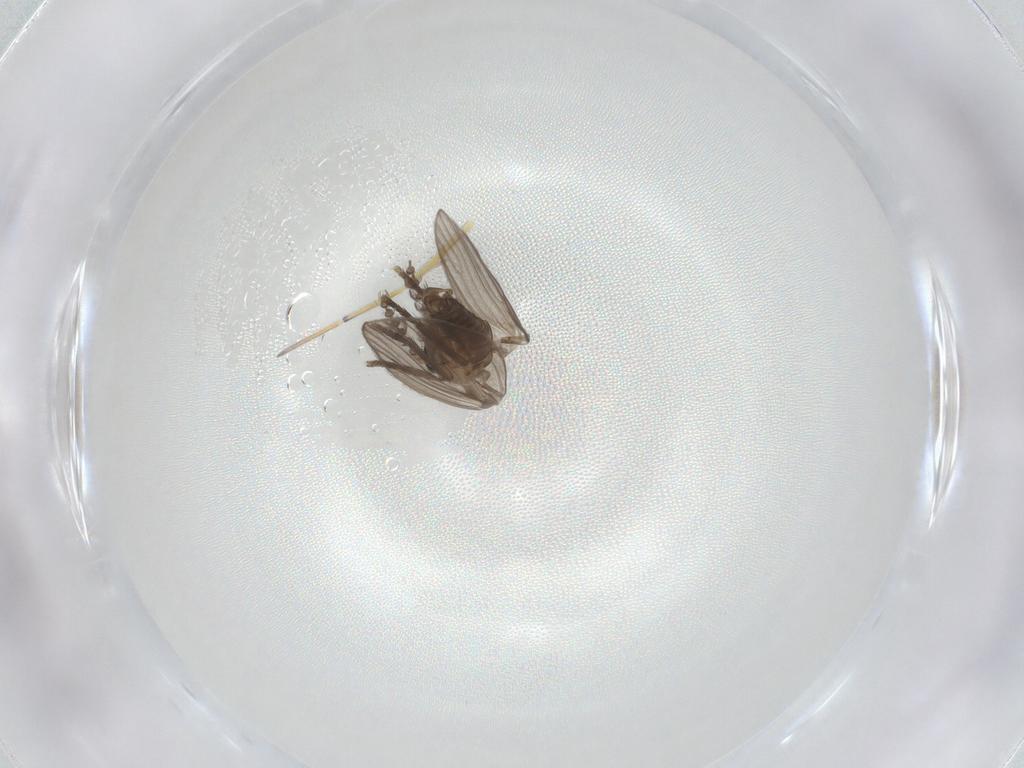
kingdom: Animalia
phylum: Arthropoda
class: Insecta
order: Diptera
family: Psychodidae
